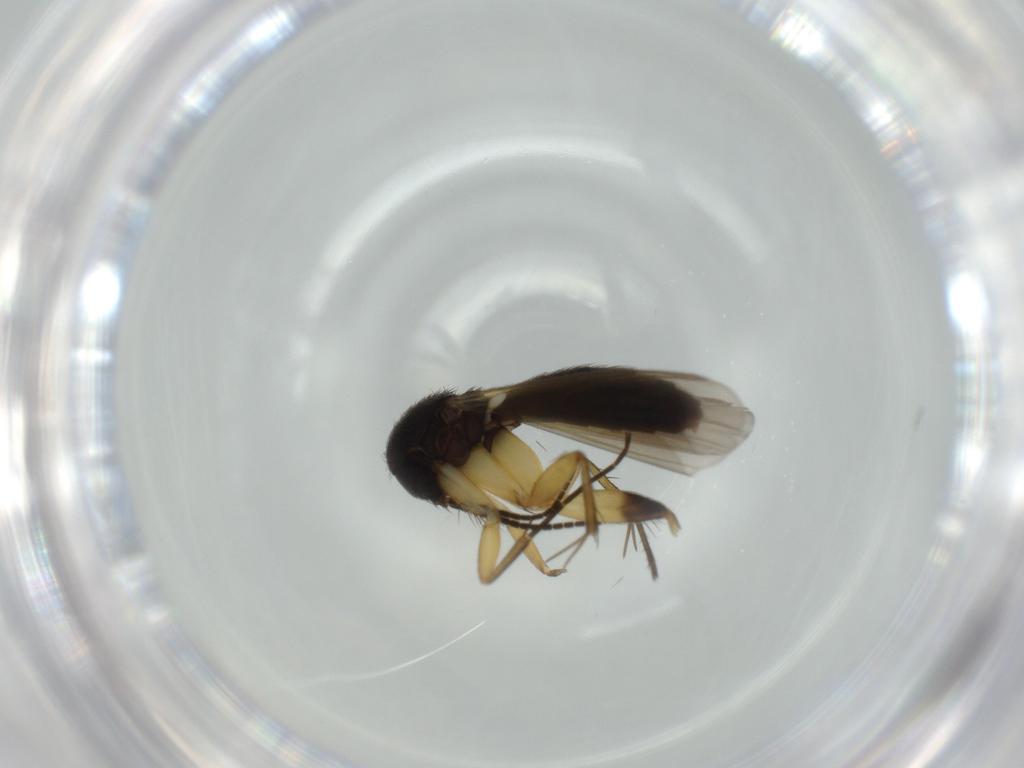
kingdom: Animalia
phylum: Arthropoda
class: Insecta
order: Diptera
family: Mycetophilidae
